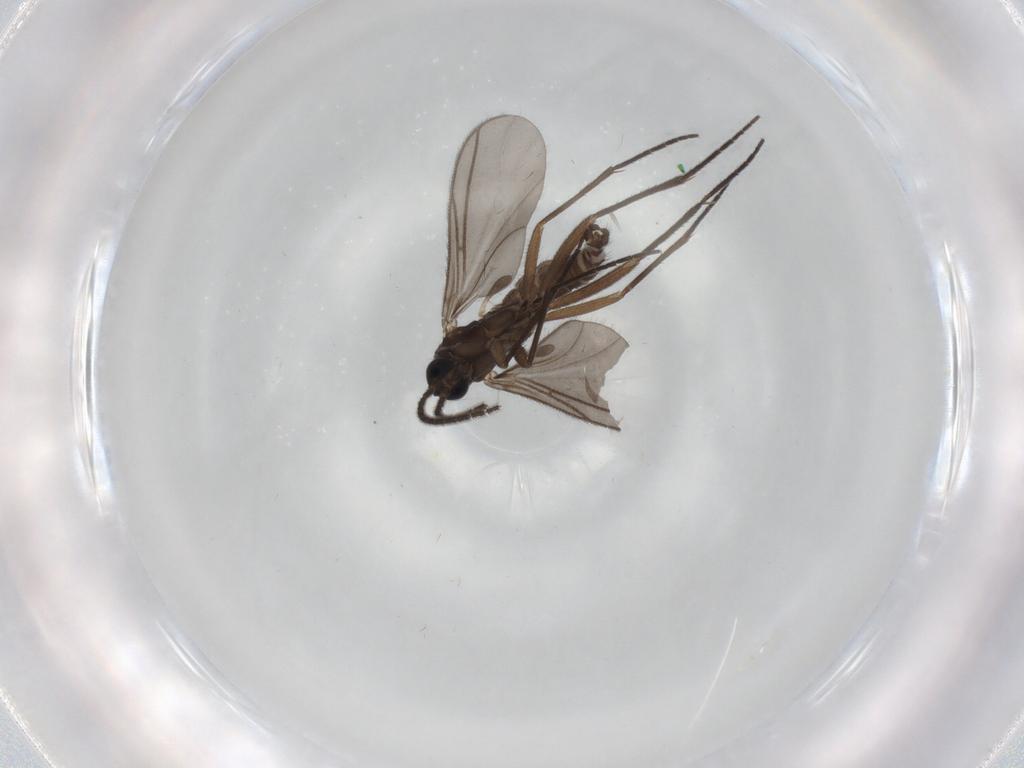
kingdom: Animalia
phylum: Arthropoda
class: Insecta
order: Diptera
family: Sciaridae
